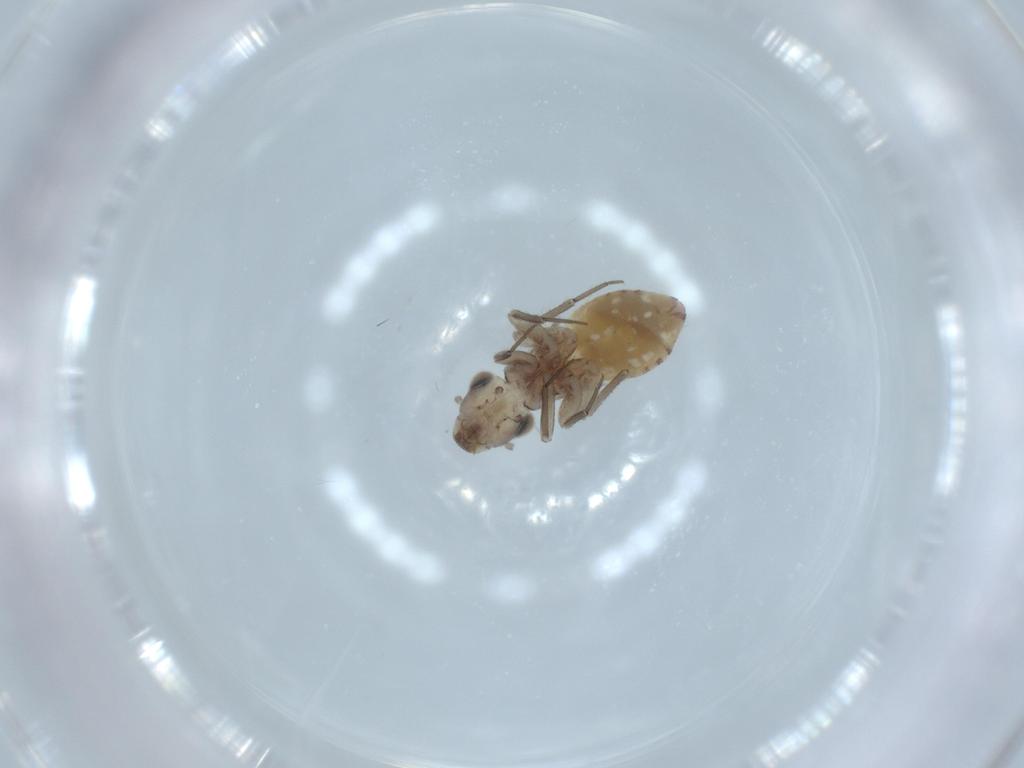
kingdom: Animalia
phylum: Arthropoda
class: Insecta
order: Psocodea
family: Lepidopsocidae
